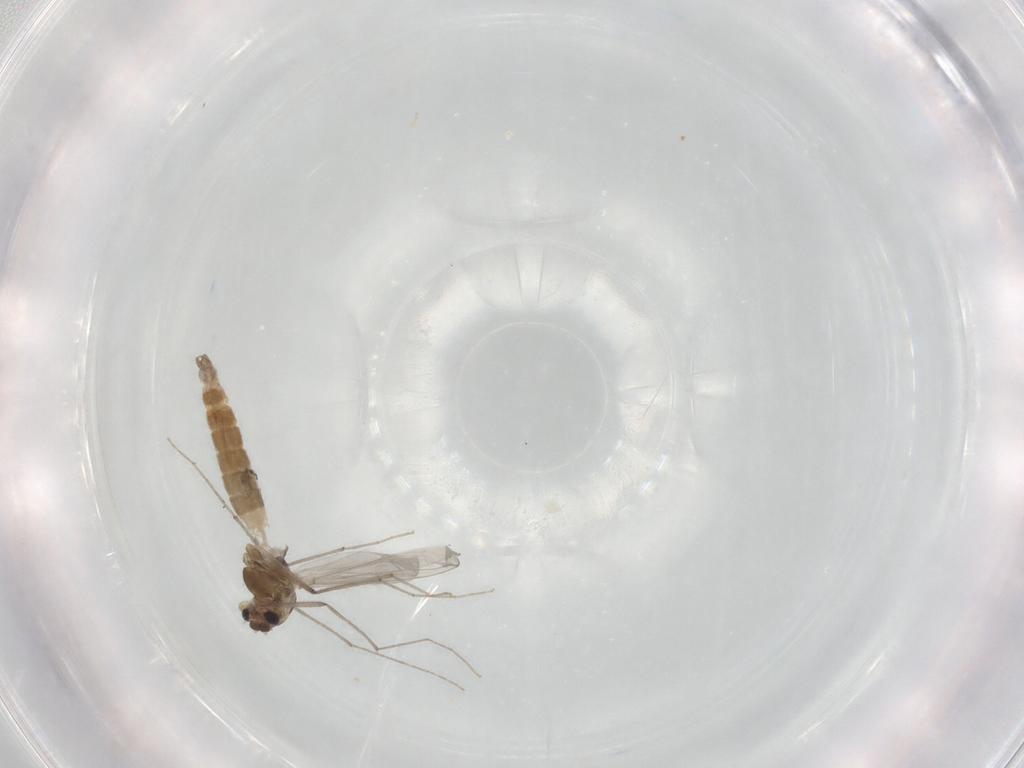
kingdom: Animalia
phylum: Arthropoda
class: Insecta
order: Diptera
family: Chironomidae
